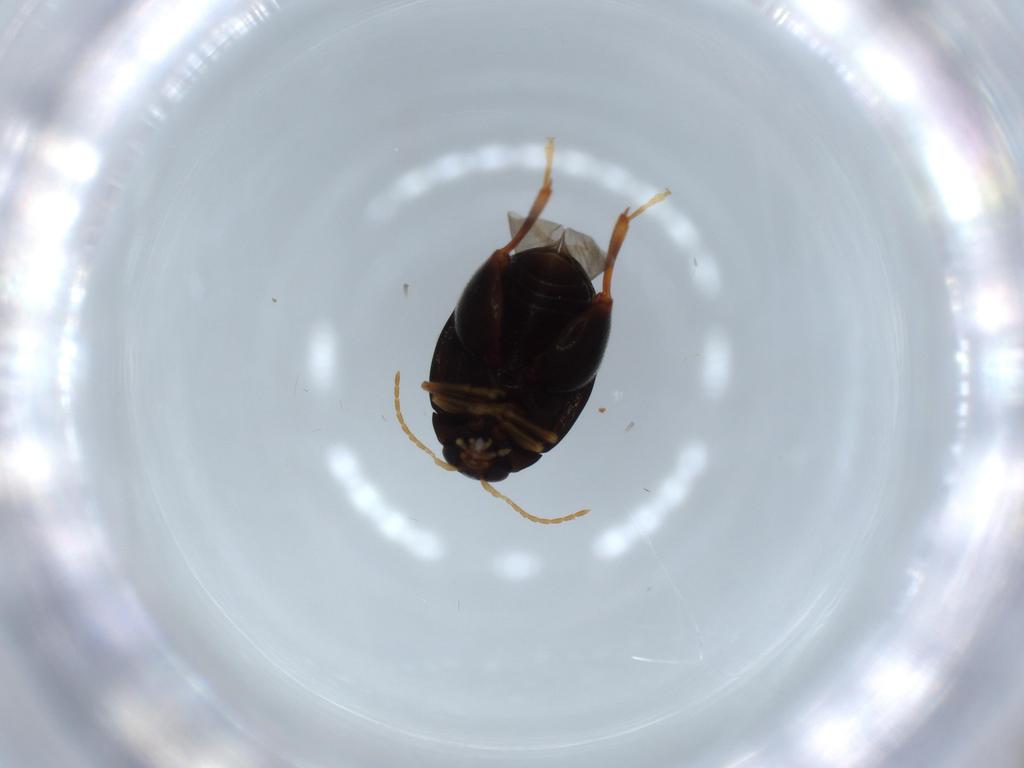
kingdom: Animalia
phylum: Arthropoda
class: Insecta
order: Coleoptera
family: Chrysomelidae
